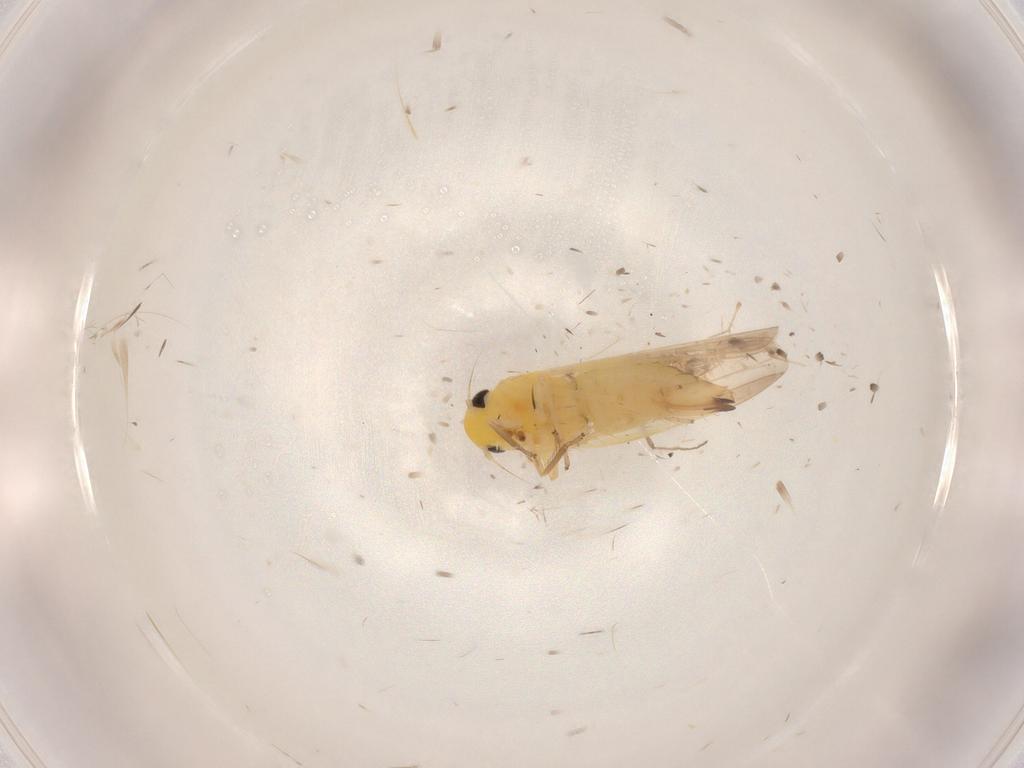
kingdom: Animalia
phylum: Arthropoda
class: Insecta
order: Hemiptera
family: Cicadellidae
